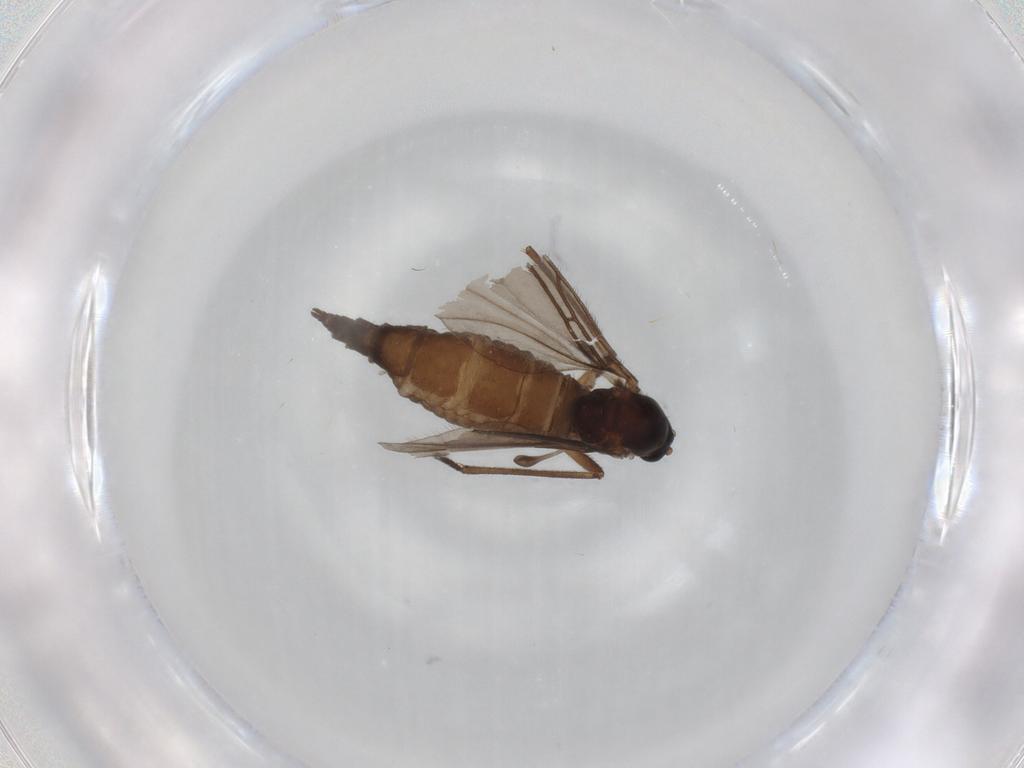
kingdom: Animalia
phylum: Arthropoda
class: Insecta
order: Diptera
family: Sciaridae
